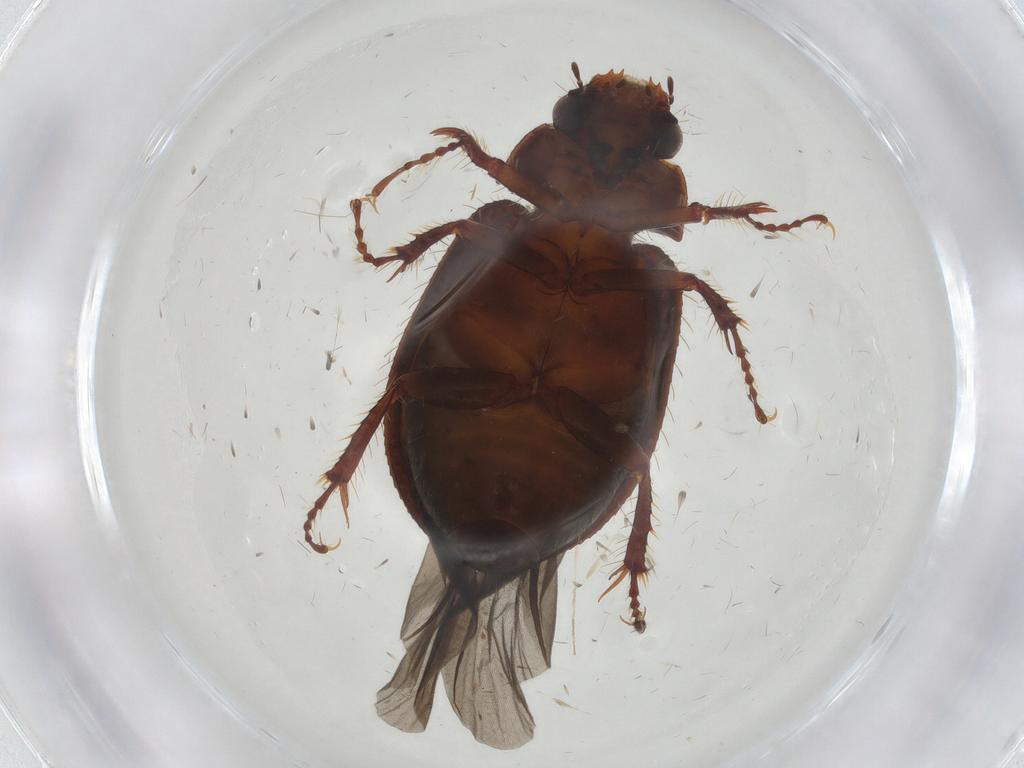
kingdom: Animalia
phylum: Arthropoda
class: Insecta
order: Coleoptera
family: Hybosoridae
